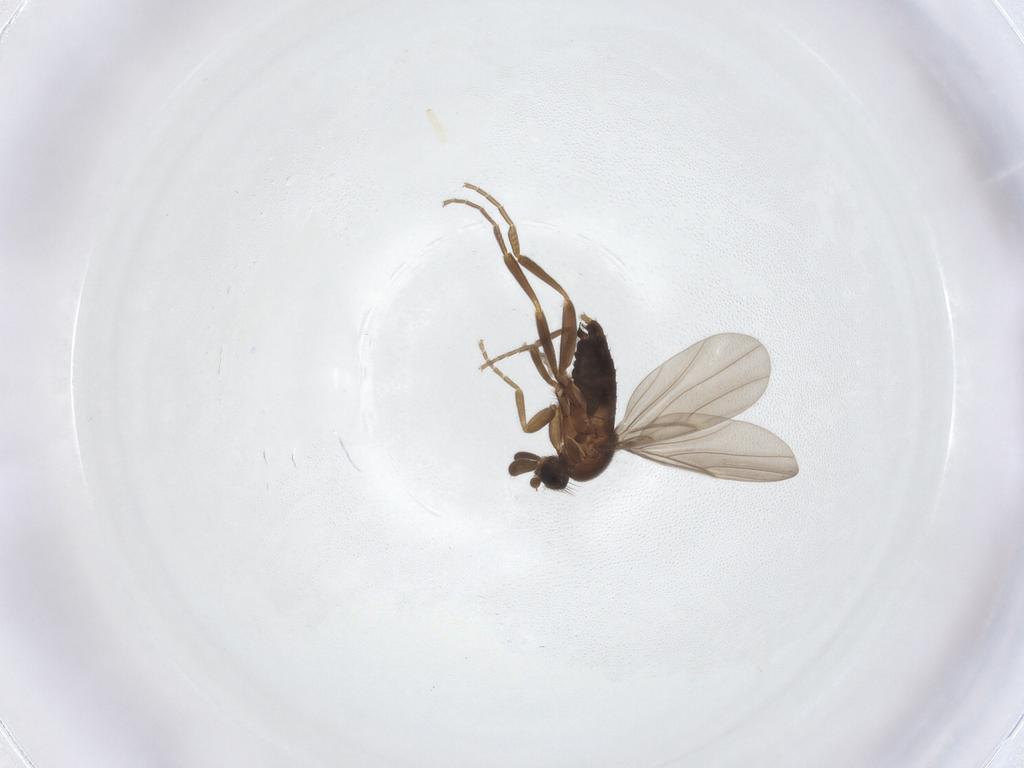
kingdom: Animalia
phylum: Arthropoda
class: Insecta
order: Diptera
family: Phoridae
